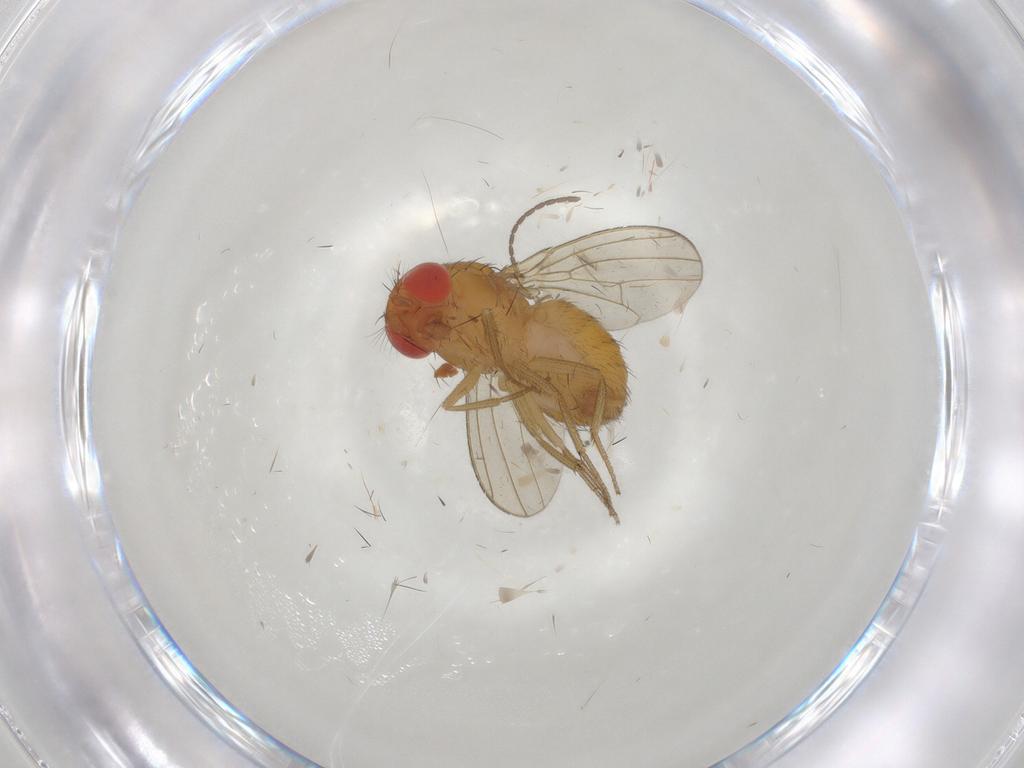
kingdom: Animalia
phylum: Arthropoda
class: Insecta
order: Diptera
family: Drosophilidae
